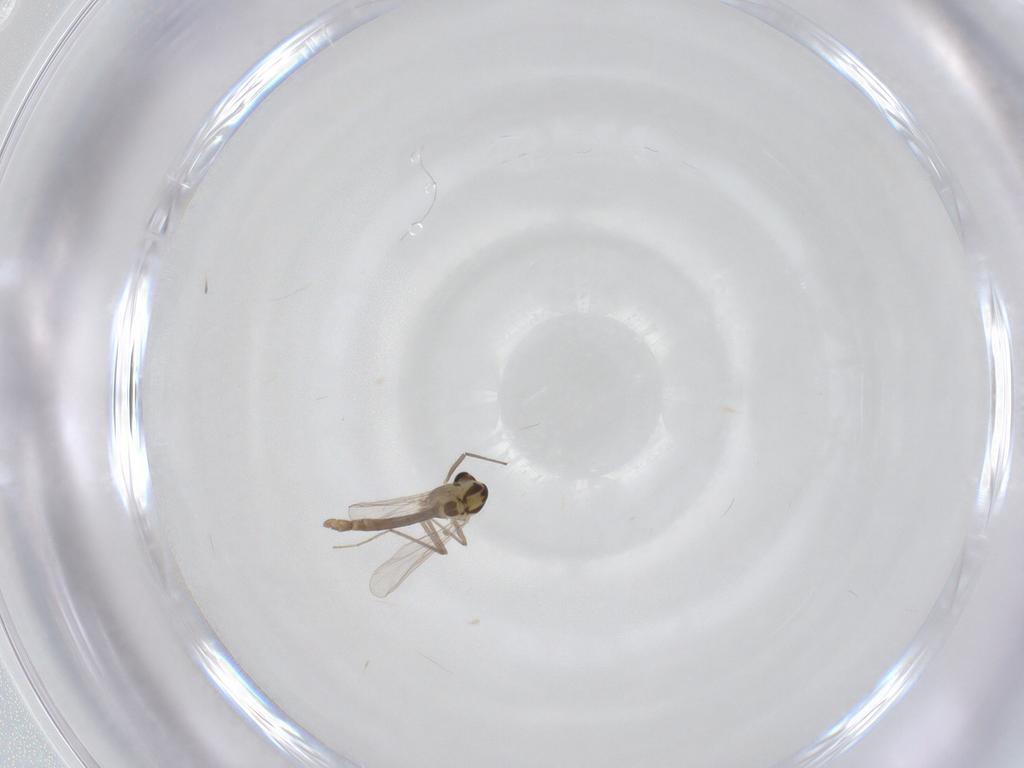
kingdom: Animalia
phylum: Arthropoda
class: Insecta
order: Diptera
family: Chironomidae
